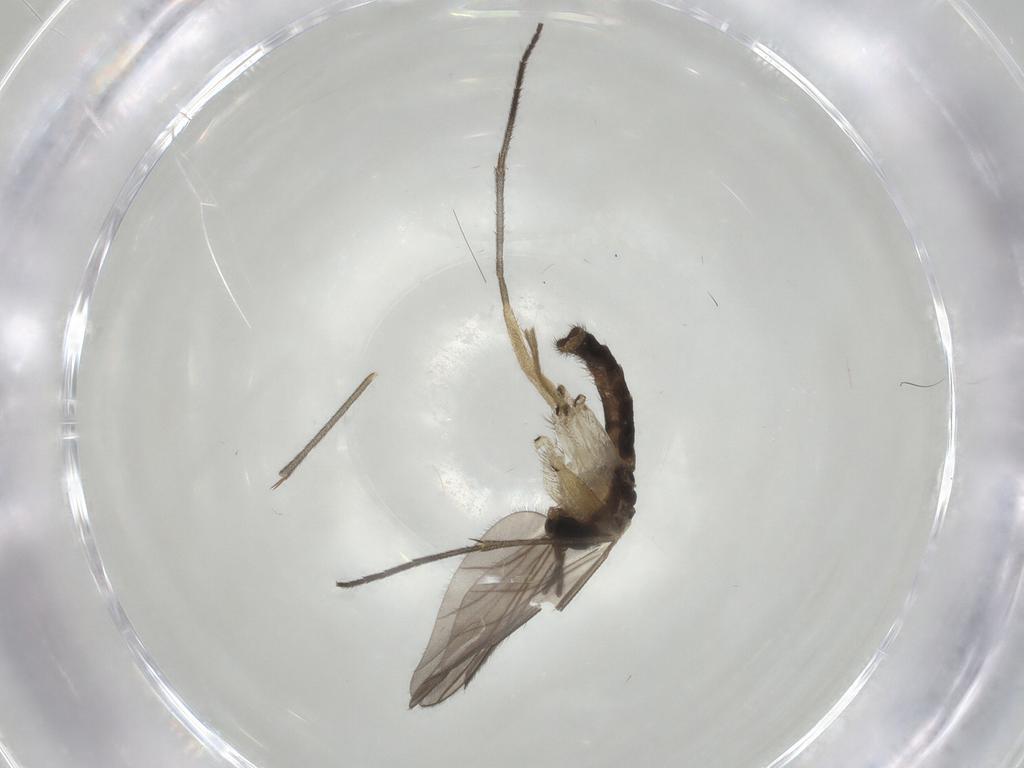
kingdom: Animalia
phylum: Arthropoda
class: Insecta
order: Diptera
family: Sciaridae
